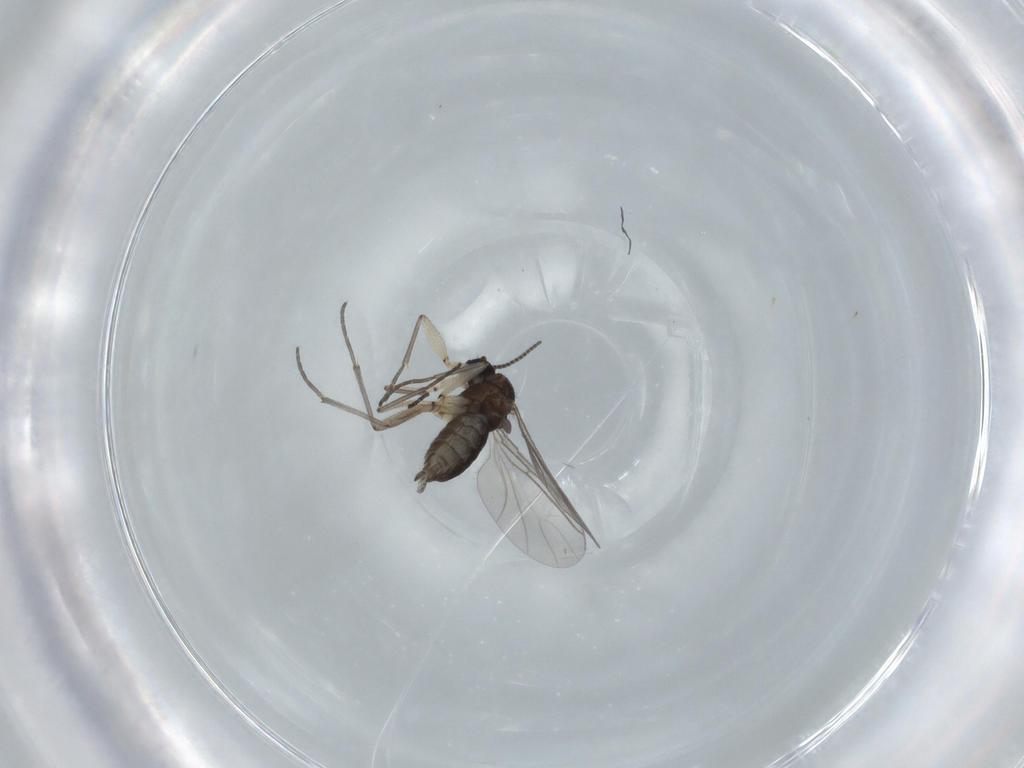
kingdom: Animalia
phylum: Arthropoda
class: Insecta
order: Diptera
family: Sciaridae
